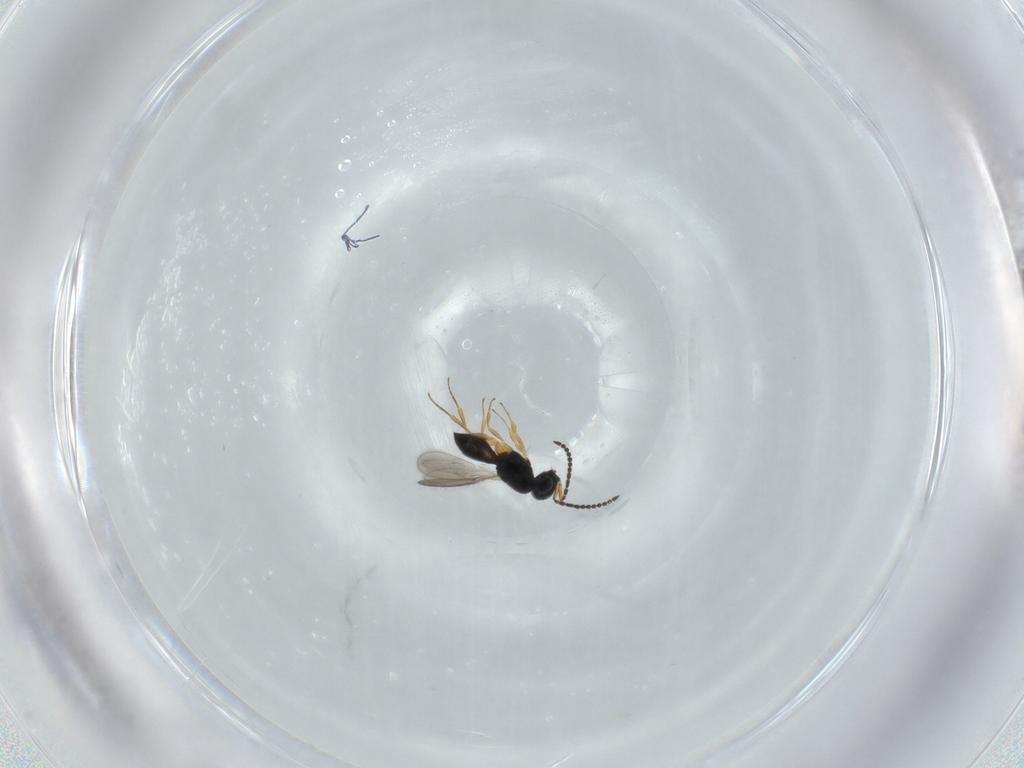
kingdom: Animalia
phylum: Arthropoda
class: Insecta
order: Hymenoptera
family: Scelionidae
